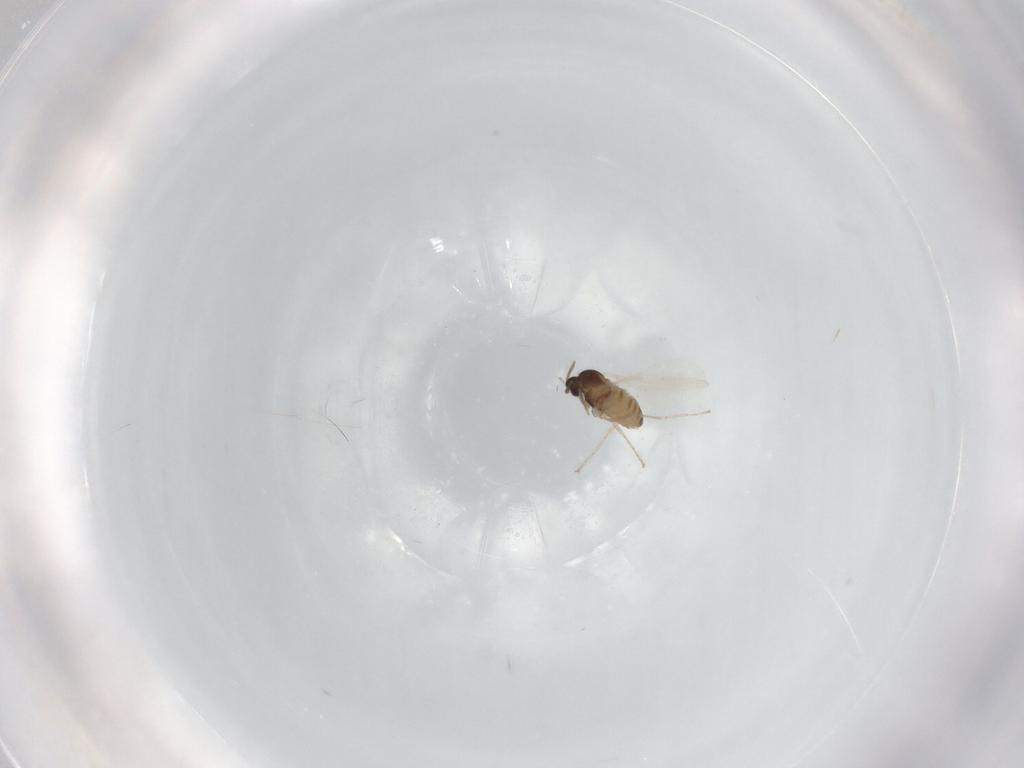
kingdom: Animalia
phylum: Arthropoda
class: Insecta
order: Diptera
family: Cecidomyiidae
